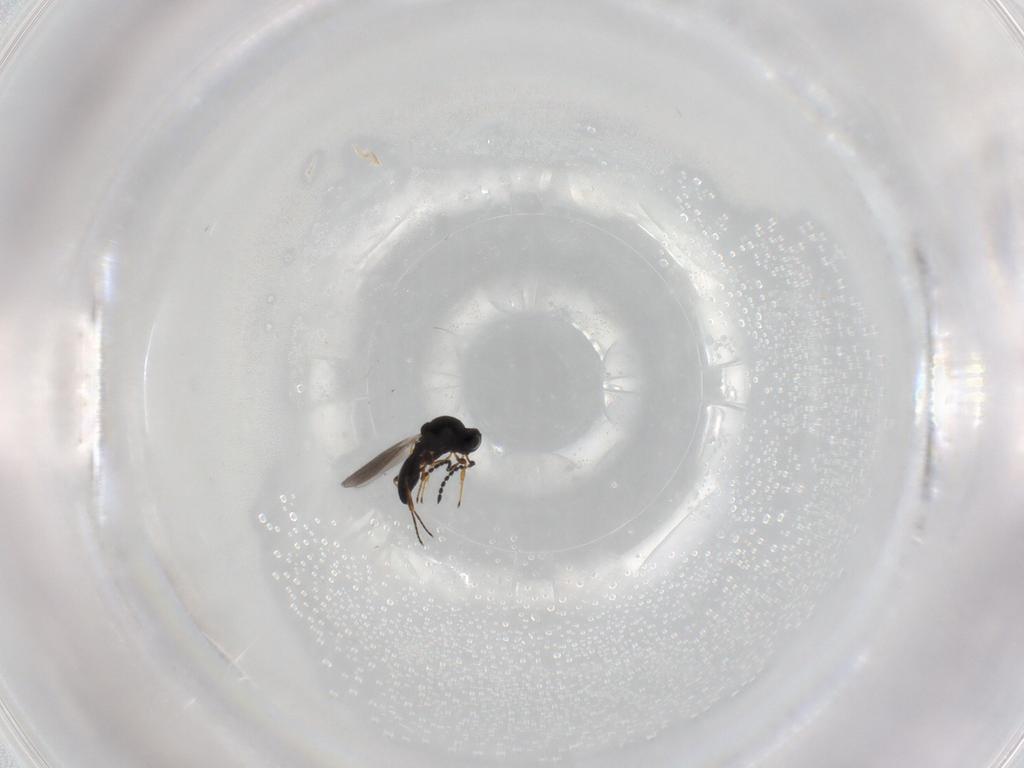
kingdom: Animalia
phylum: Arthropoda
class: Insecta
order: Hymenoptera
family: Platygastridae
